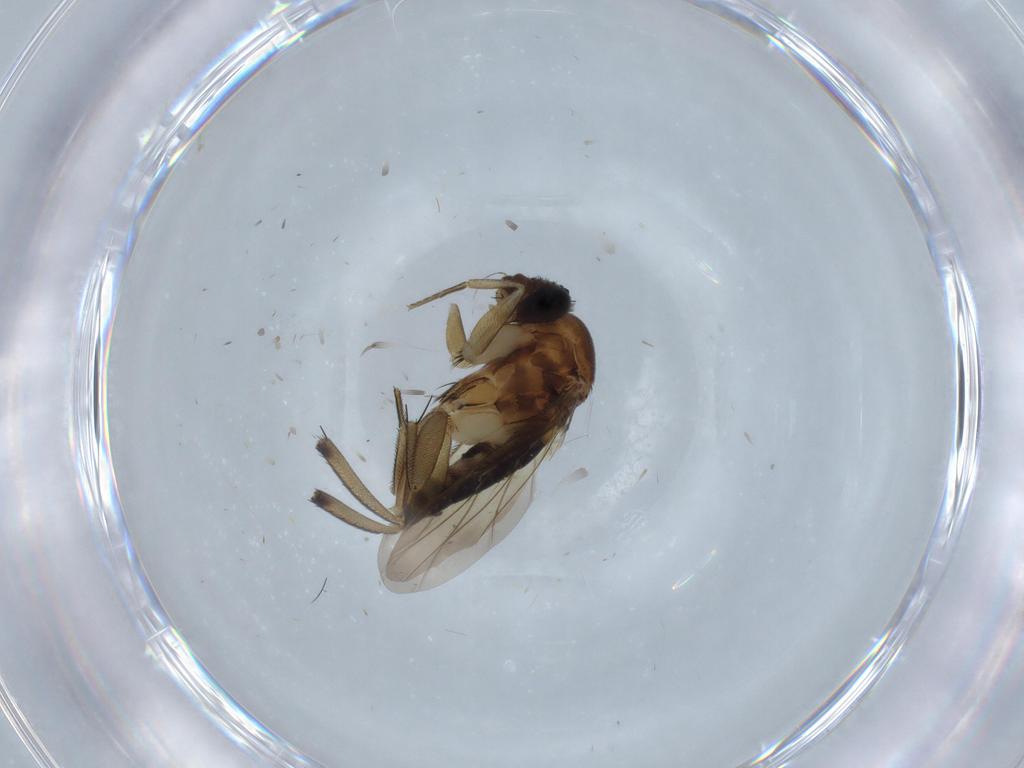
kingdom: Animalia
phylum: Arthropoda
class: Insecta
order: Diptera
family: Phoridae
